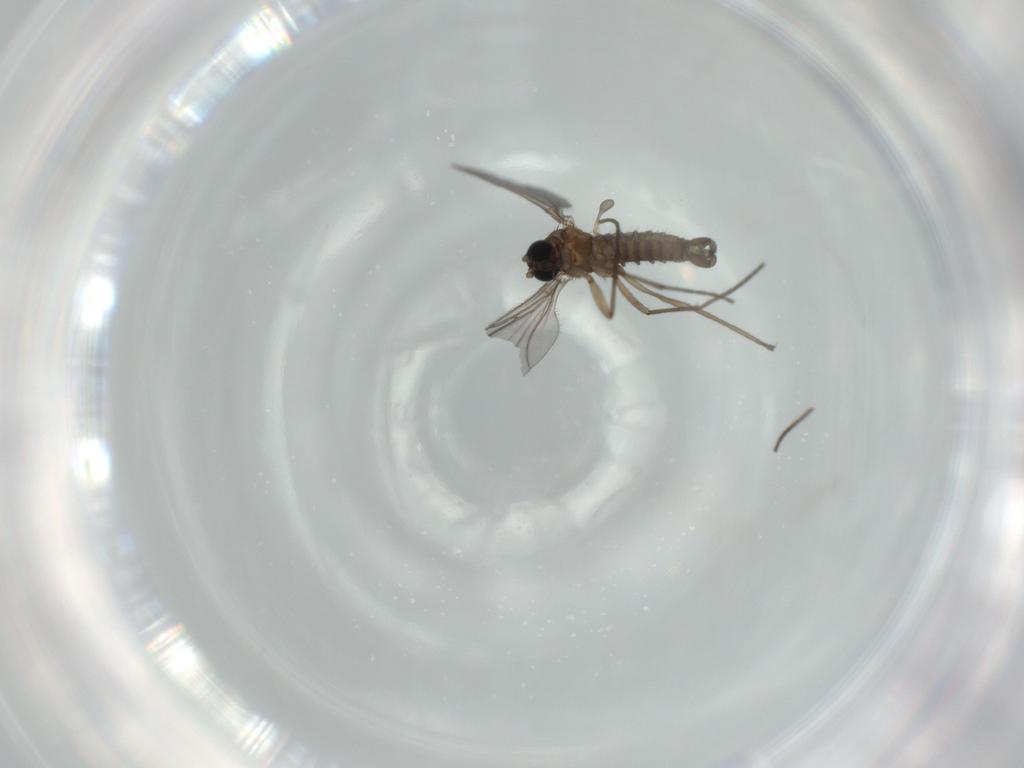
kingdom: Animalia
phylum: Arthropoda
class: Insecta
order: Diptera
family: Sciaridae
